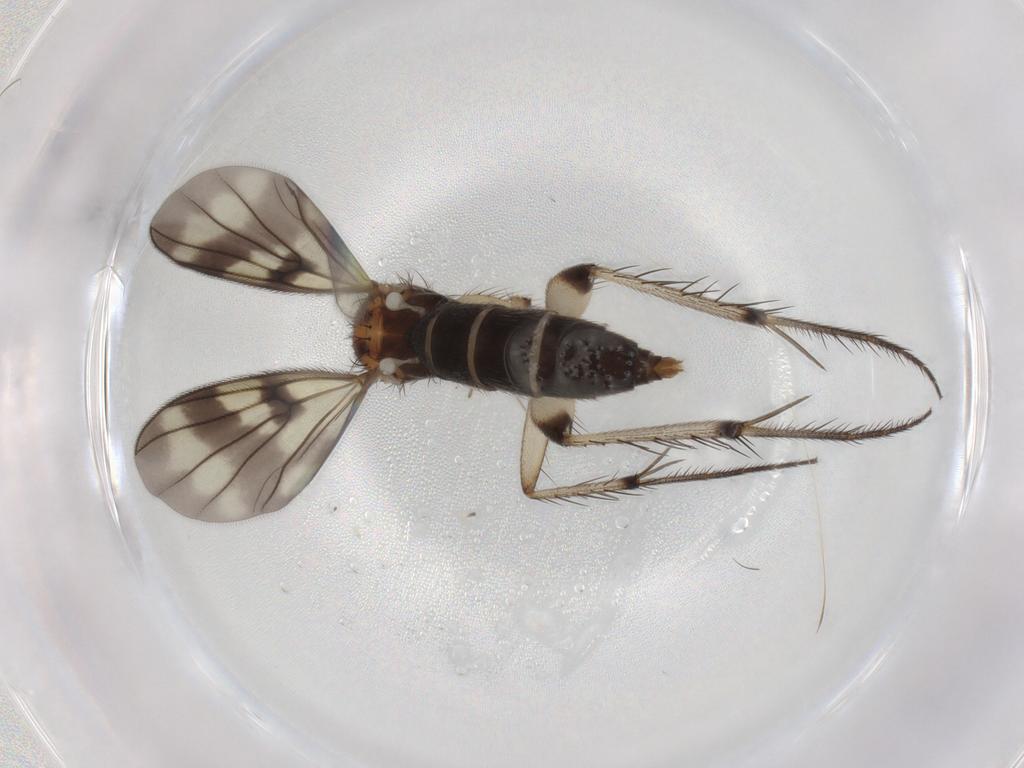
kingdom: Animalia
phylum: Arthropoda
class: Insecta
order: Diptera
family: Mycetophilidae
